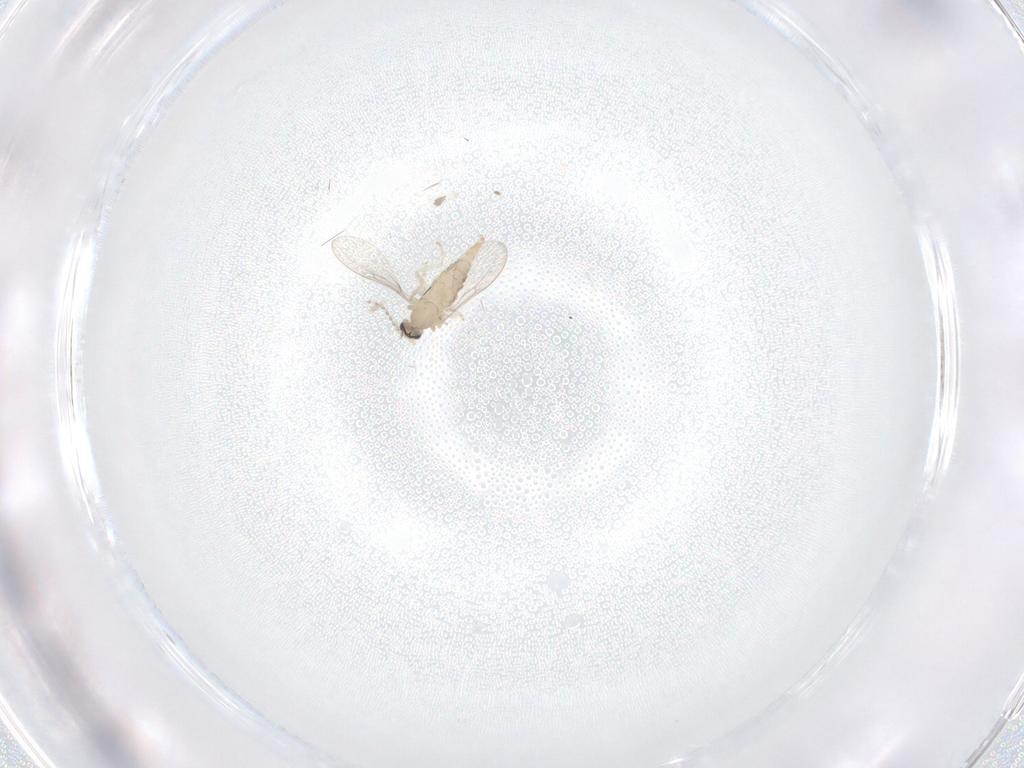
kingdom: Animalia
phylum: Arthropoda
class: Insecta
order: Diptera
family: Cecidomyiidae
